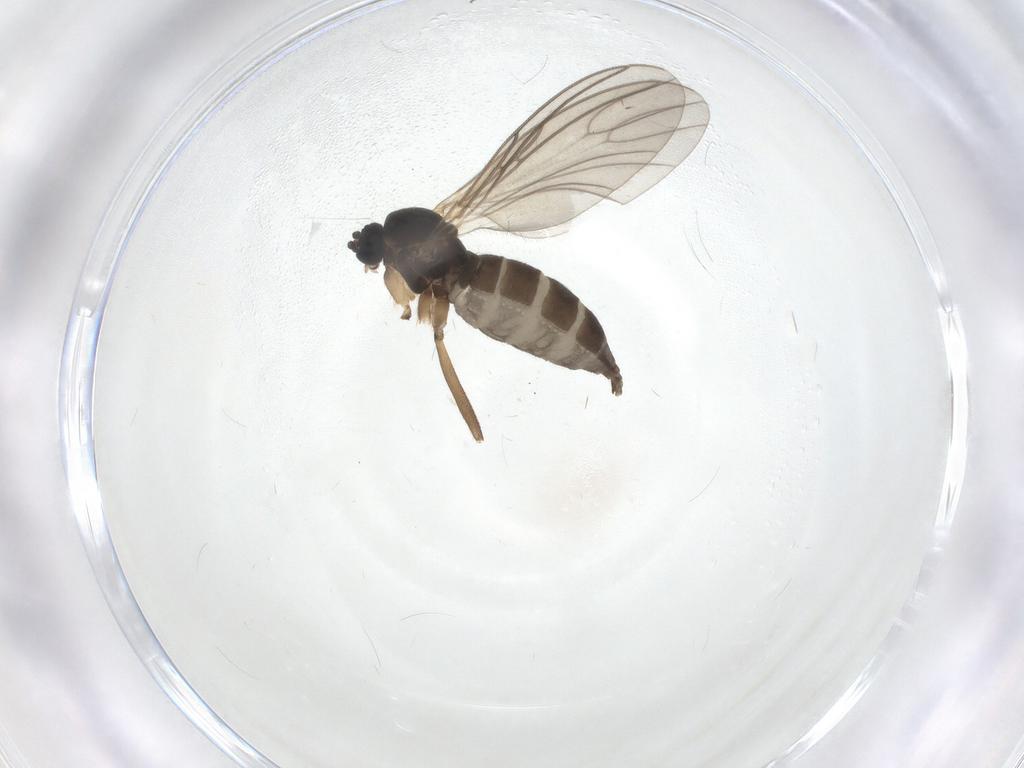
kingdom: Animalia
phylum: Arthropoda
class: Insecta
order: Diptera
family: Sciaridae
